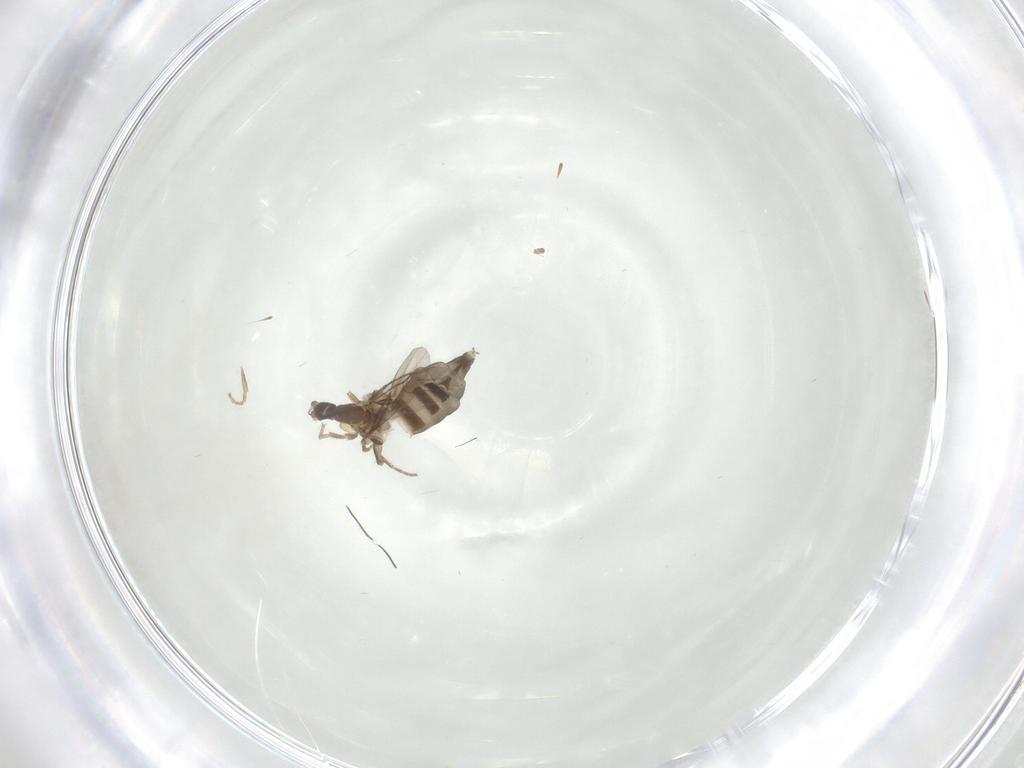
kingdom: Animalia
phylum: Arthropoda
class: Insecta
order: Diptera
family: Phoridae
